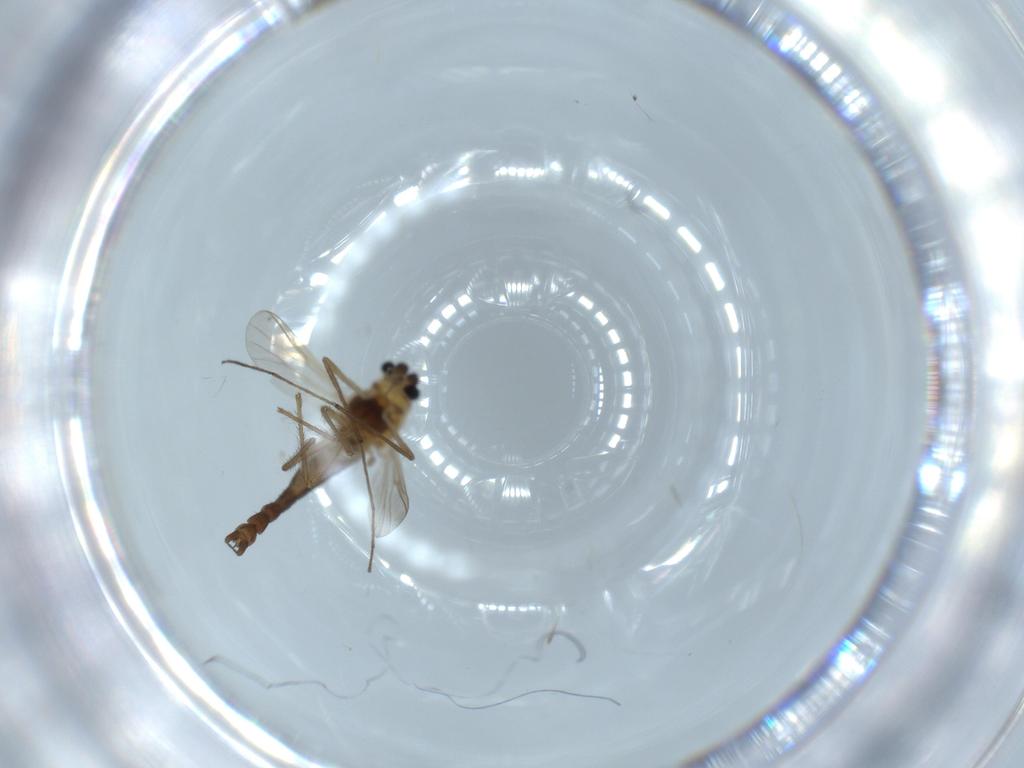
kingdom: Animalia
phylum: Arthropoda
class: Insecta
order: Diptera
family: Chironomidae
